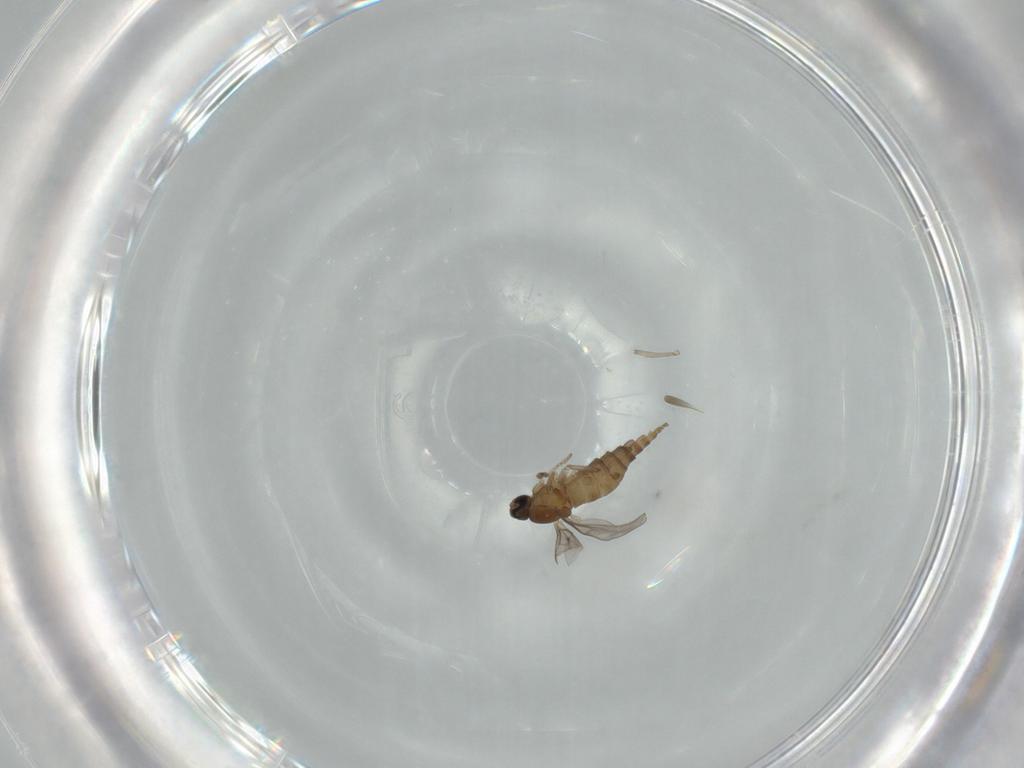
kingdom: Animalia
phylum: Arthropoda
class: Insecta
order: Diptera
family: Cecidomyiidae
